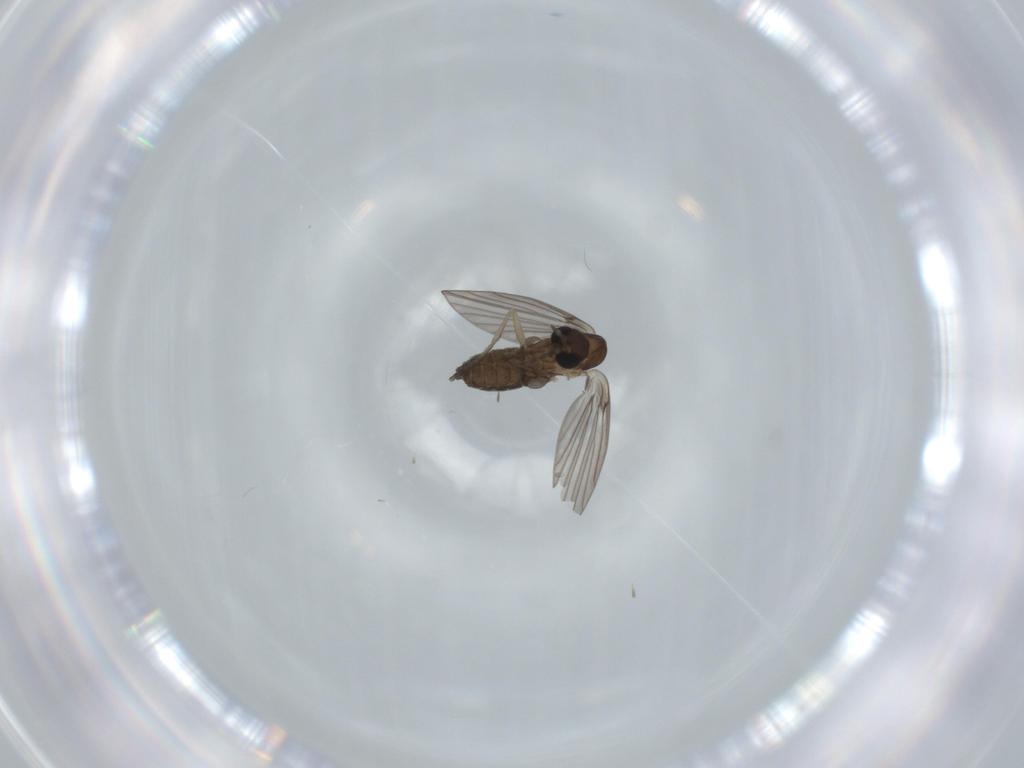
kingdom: Animalia
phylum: Arthropoda
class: Insecta
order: Diptera
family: Psychodidae
